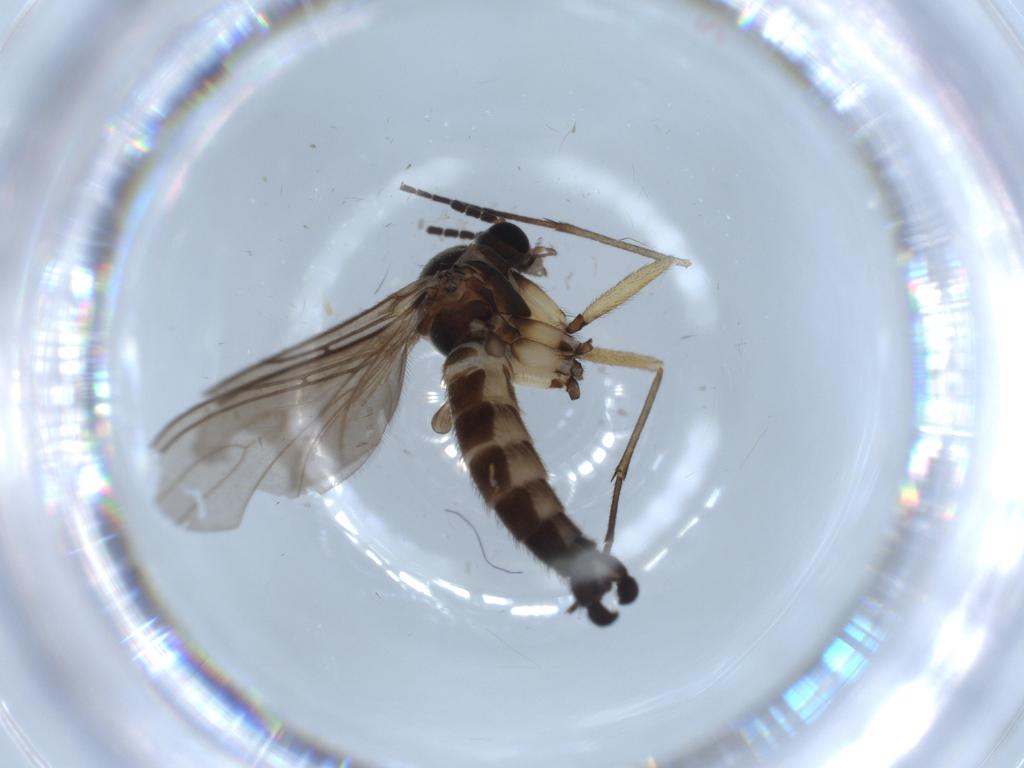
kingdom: Animalia
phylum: Arthropoda
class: Insecta
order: Diptera
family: Sciaridae
